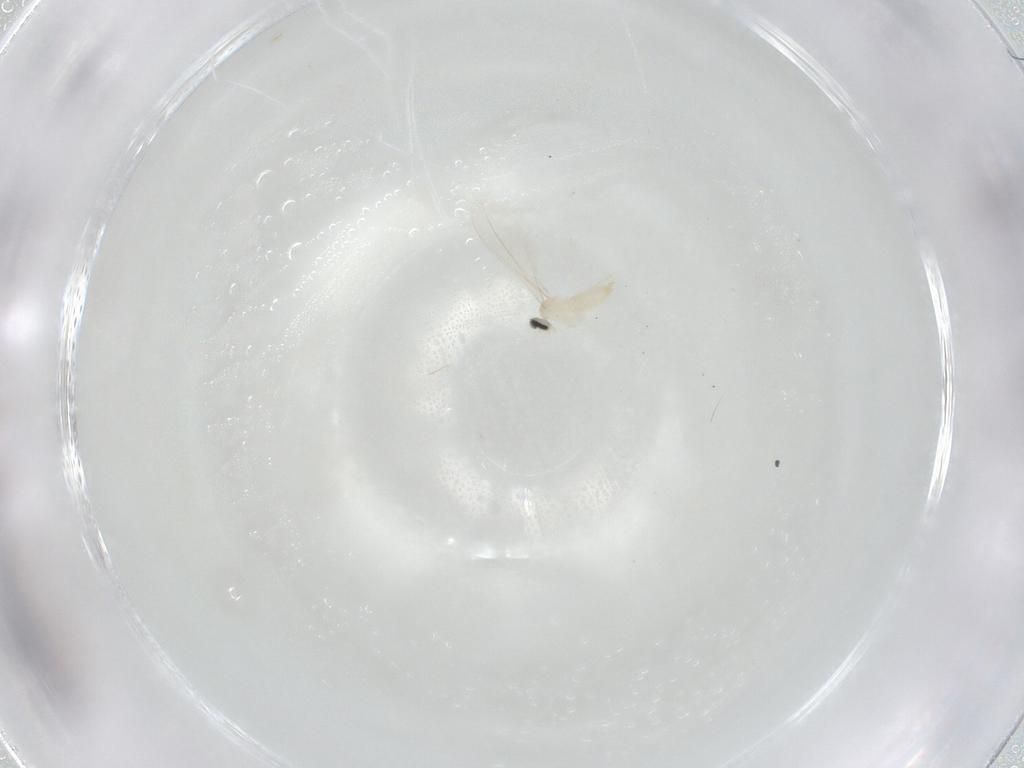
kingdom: Animalia
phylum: Arthropoda
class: Insecta
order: Diptera
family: Cecidomyiidae
